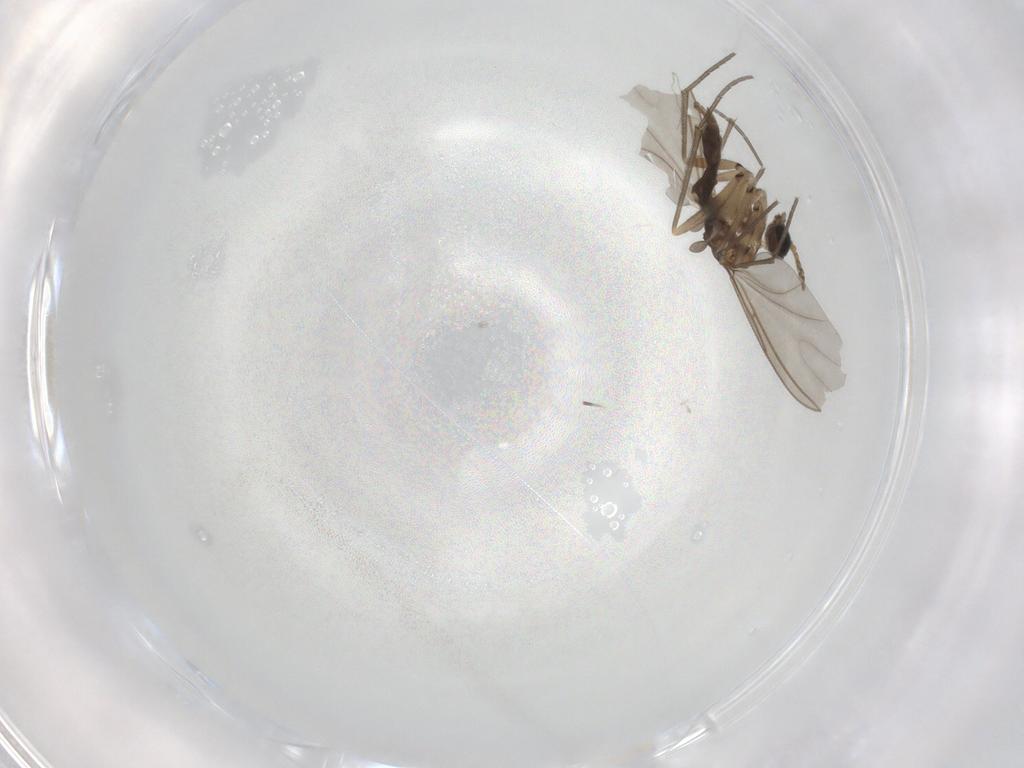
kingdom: Animalia
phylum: Arthropoda
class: Insecta
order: Diptera
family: Sciaridae
